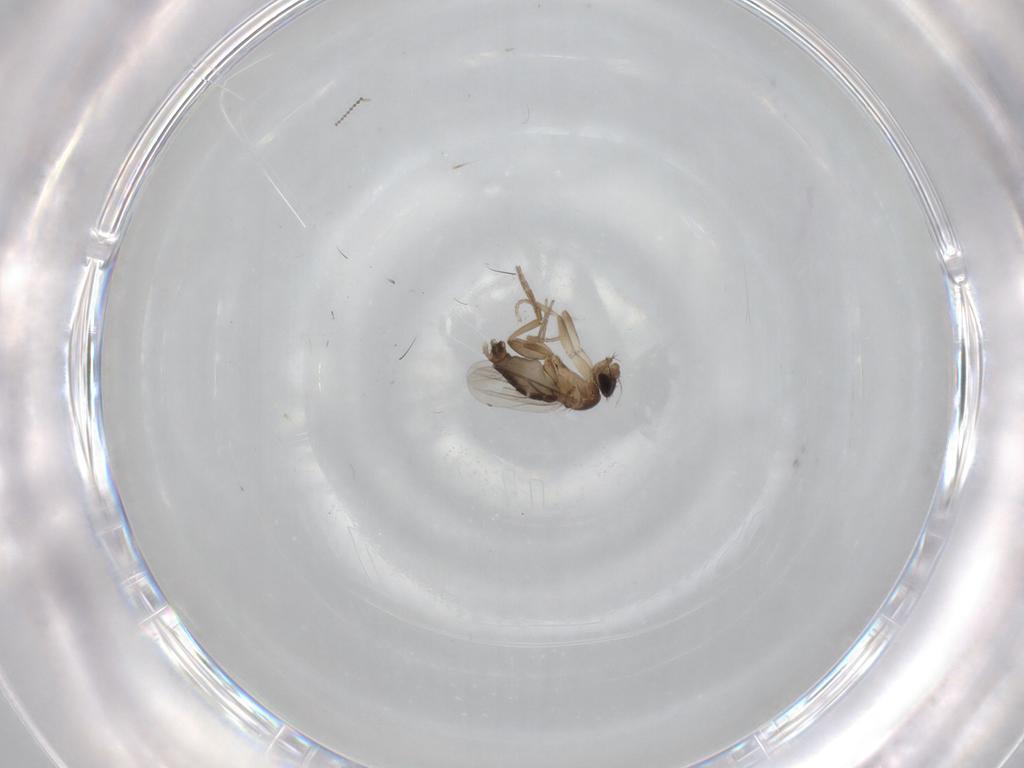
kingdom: Animalia
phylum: Arthropoda
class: Insecta
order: Diptera
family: Phoridae
